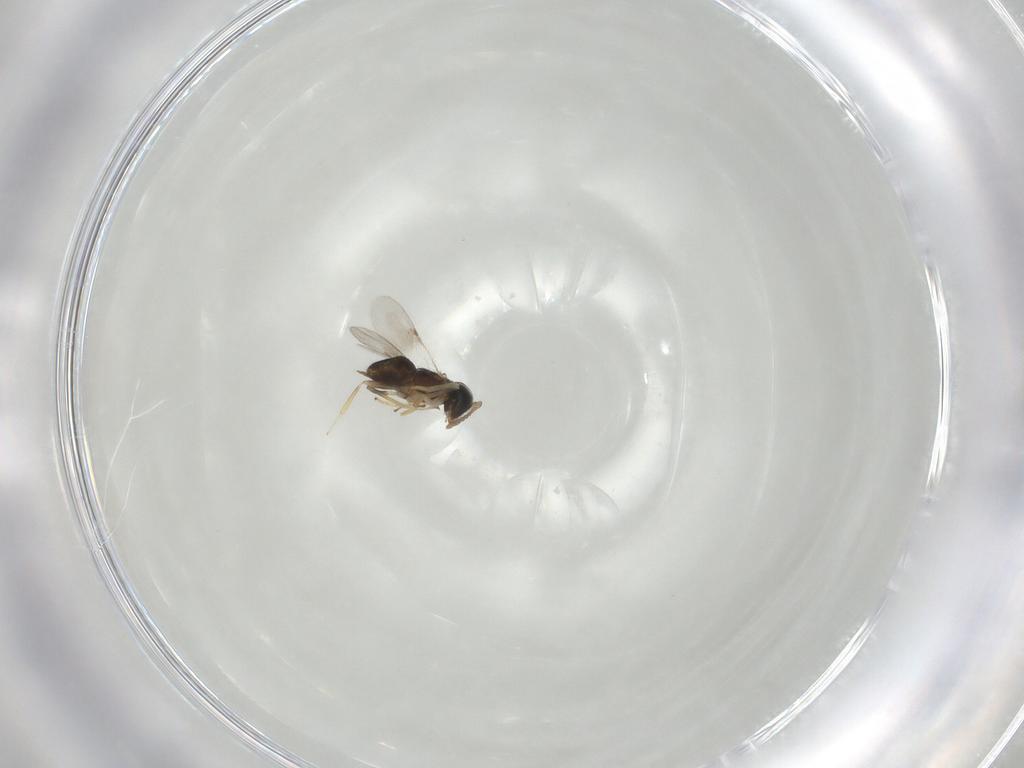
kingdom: Animalia
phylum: Arthropoda
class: Insecta
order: Hymenoptera
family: Encyrtidae
